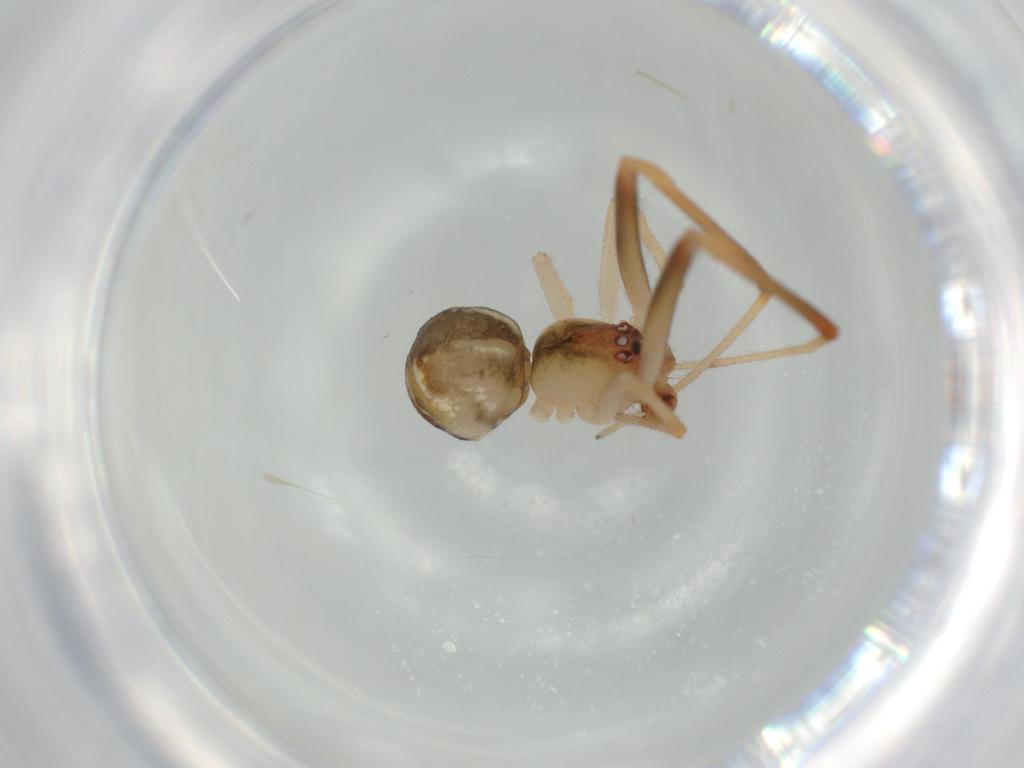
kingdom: Animalia
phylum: Arthropoda
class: Arachnida
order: Araneae
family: Theridiidae
